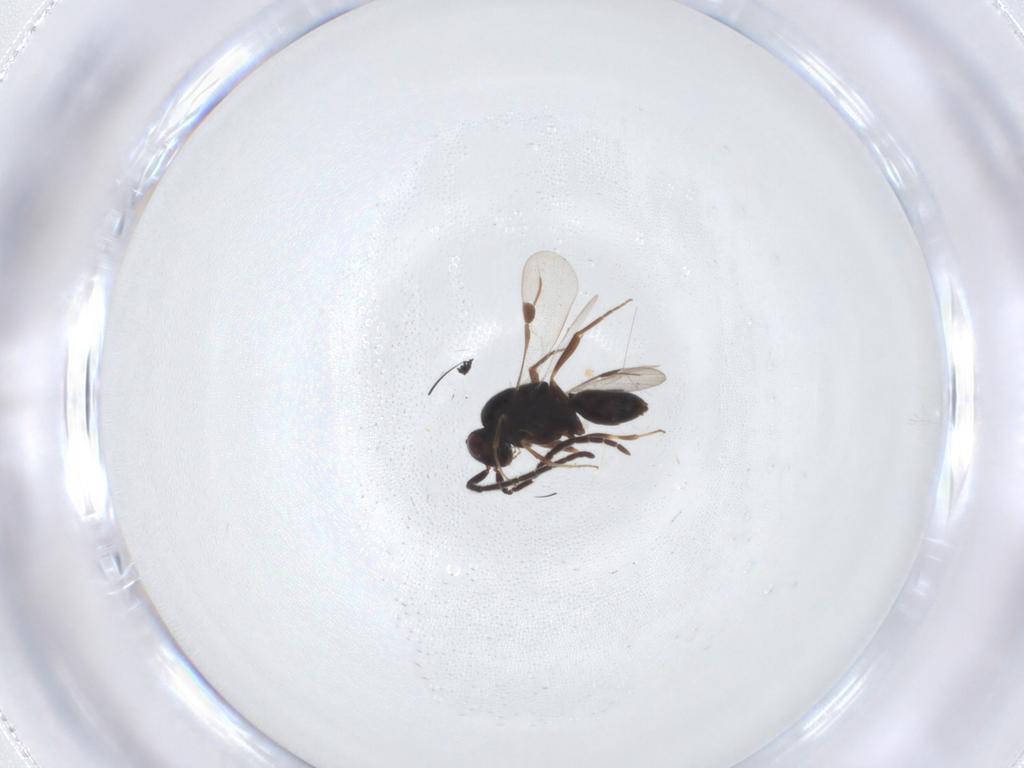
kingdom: Animalia
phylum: Arthropoda
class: Insecta
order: Hymenoptera
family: Megaspilidae
